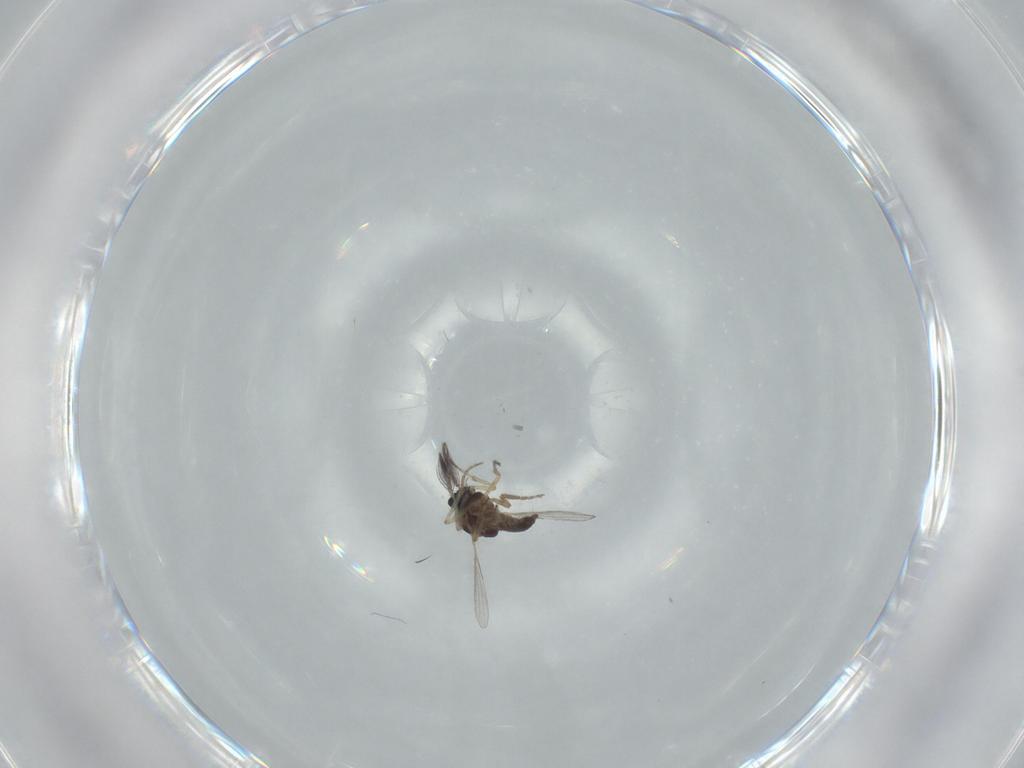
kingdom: Animalia
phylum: Arthropoda
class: Insecta
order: Diptera
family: Ceratopogonidae
